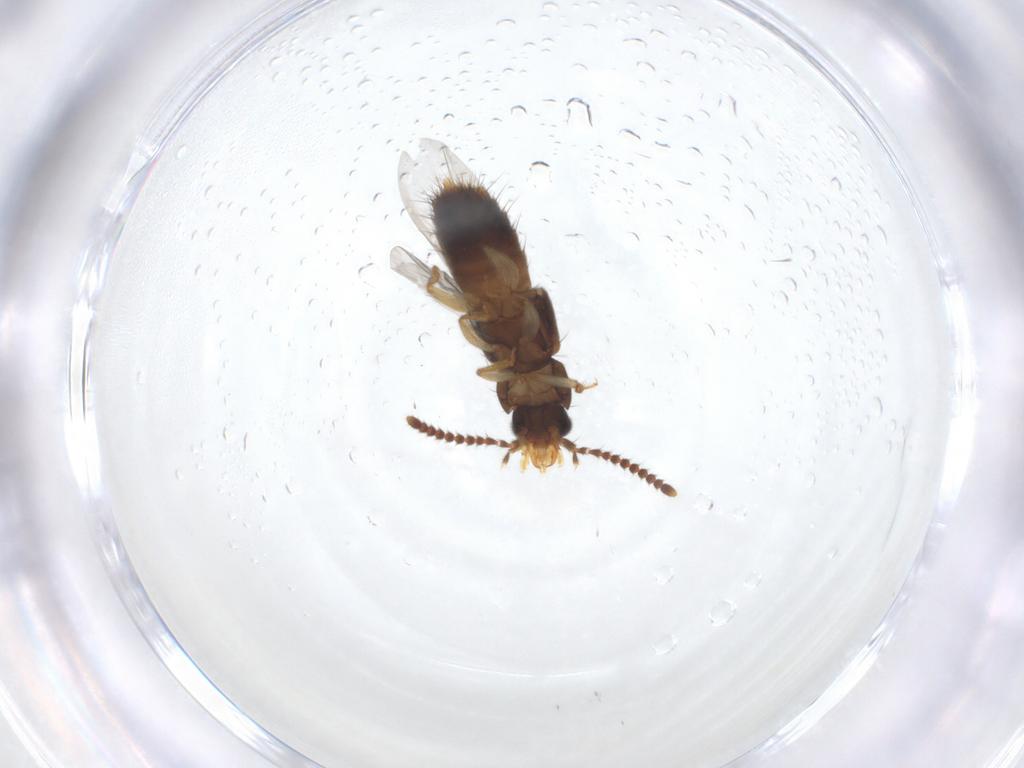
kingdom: Animalia
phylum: Arthropoda
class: Insecta
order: Coleoptera
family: Staphylinidae
